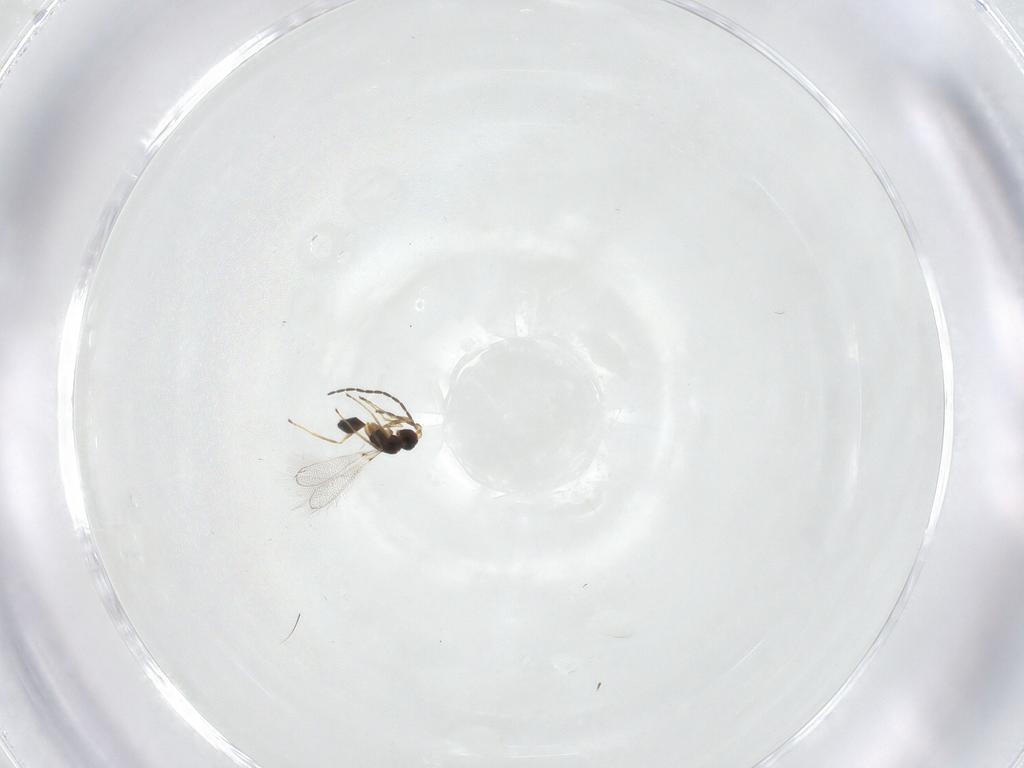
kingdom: Animalia
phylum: Arthropoda
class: Insecta
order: Hymenoptera
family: Mymaridae
